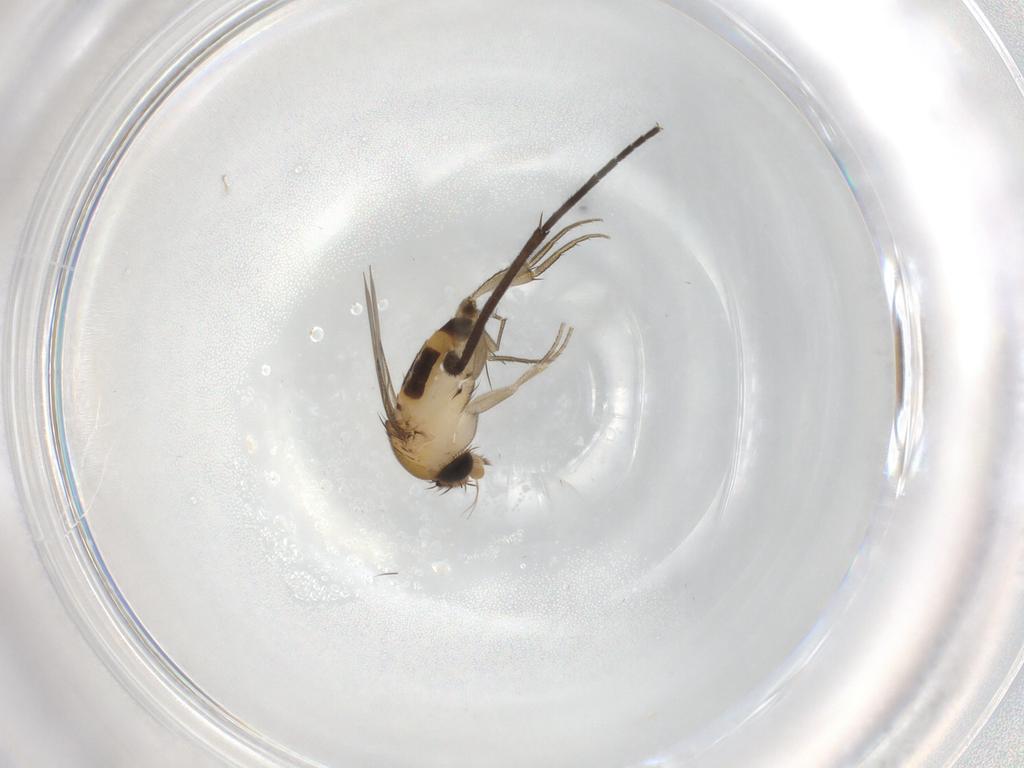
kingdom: Animalia
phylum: Arthropoda
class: Insecta
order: Diptera
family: Phoridae
